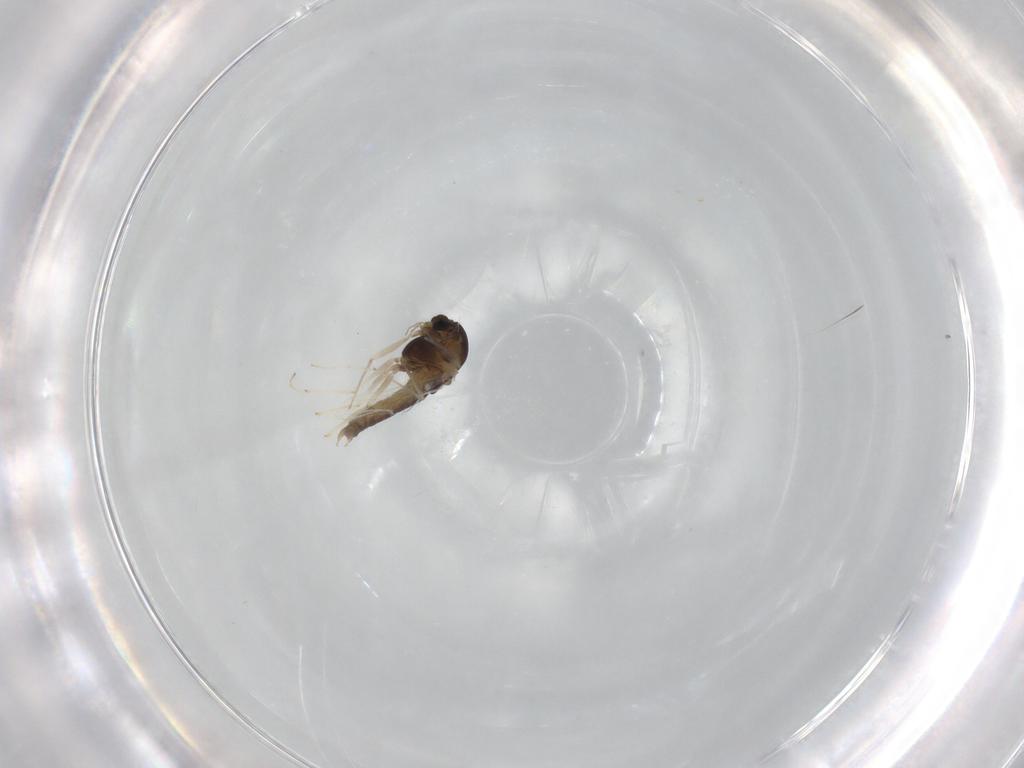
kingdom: Animalia
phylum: Arthropoda
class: Insecta
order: Diptera
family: Chironomidae
